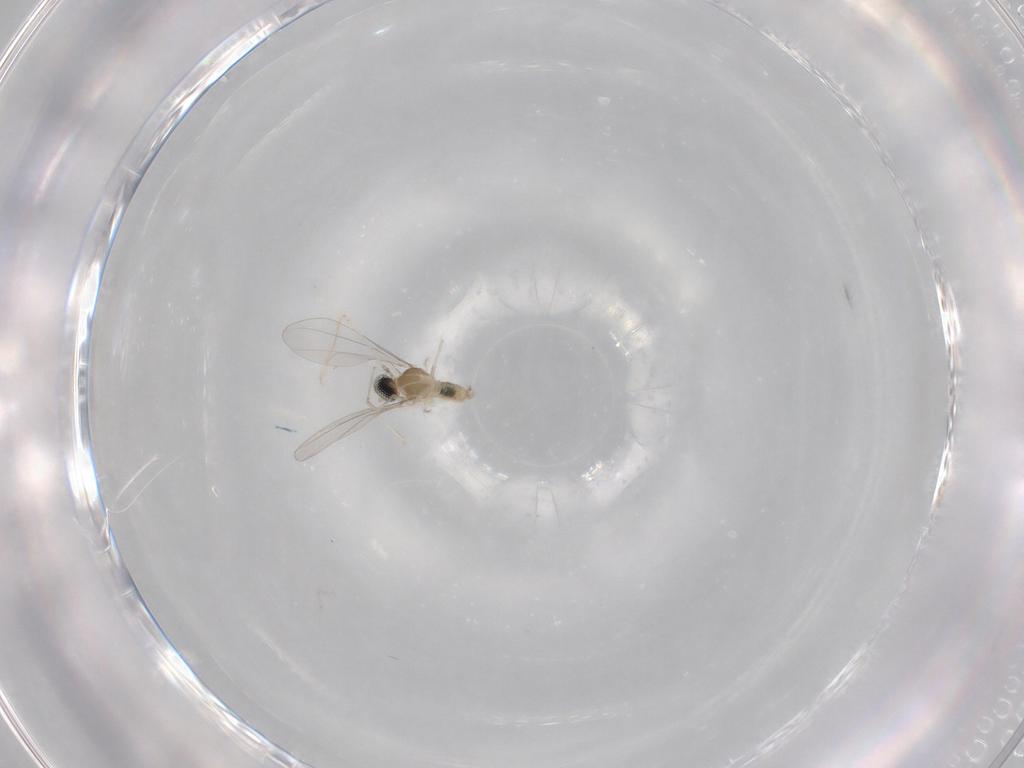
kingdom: Animalia
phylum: Arthropoda
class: Insecta
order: Diptera
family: Cecidomyiidae
